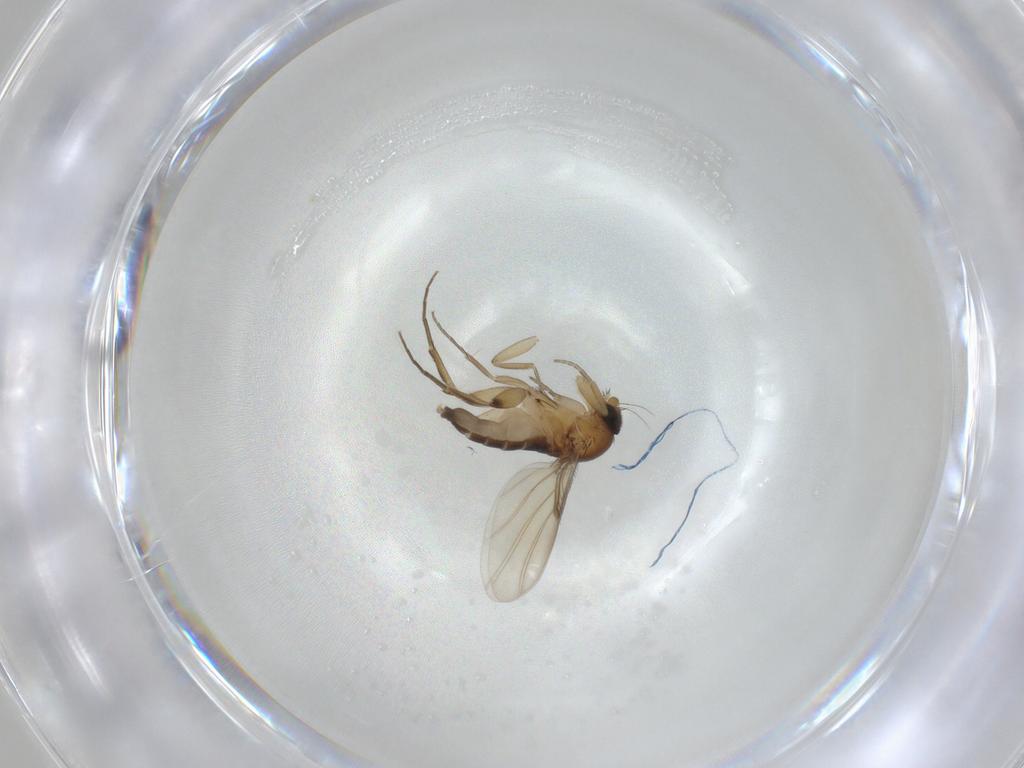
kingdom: Animalia
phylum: Arthropoda
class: Insecta
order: Diptera
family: Phoridae
